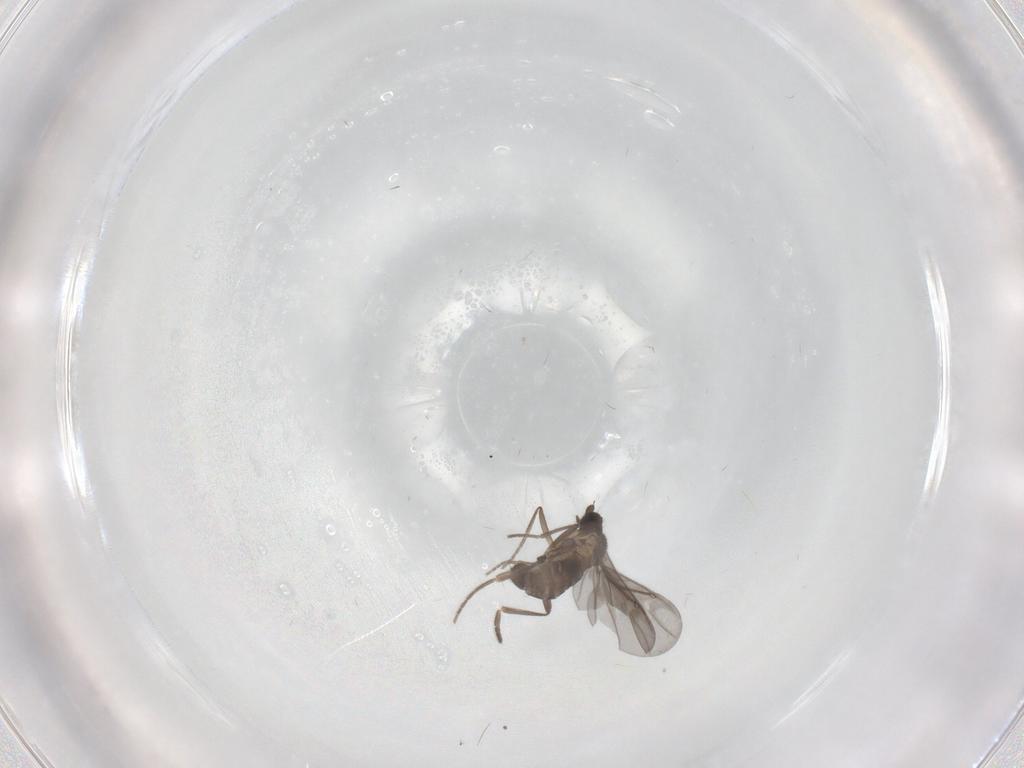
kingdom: Animalia
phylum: Arthropoda
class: Insecta
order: Diptera
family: Phoridae
